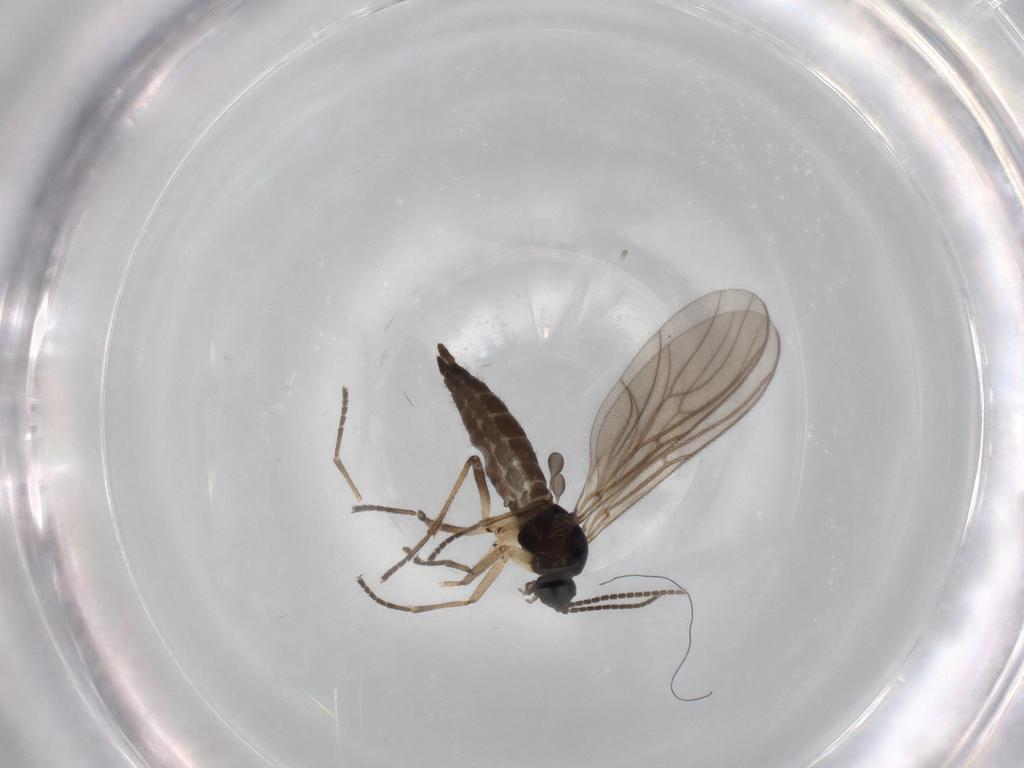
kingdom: Animalia
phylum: Arthropoda
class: Insecta
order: Diptera
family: Sciaridae
